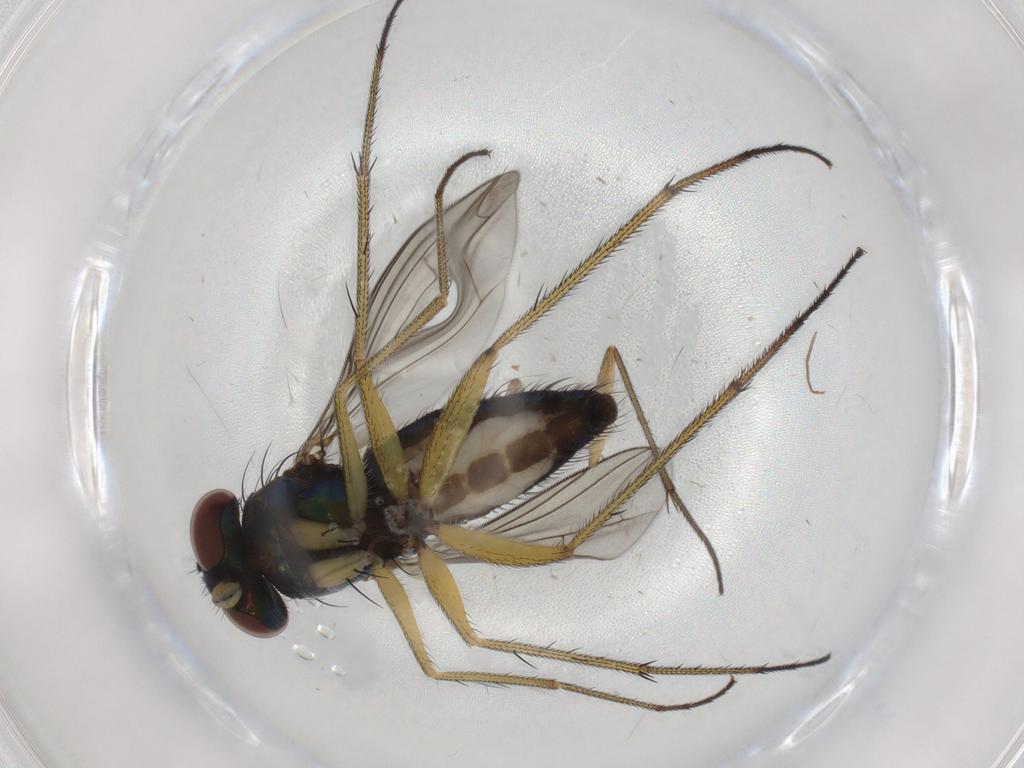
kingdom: Animalia
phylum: Arthropoda
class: Insecta
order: Diptera
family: Dolichopodidae
